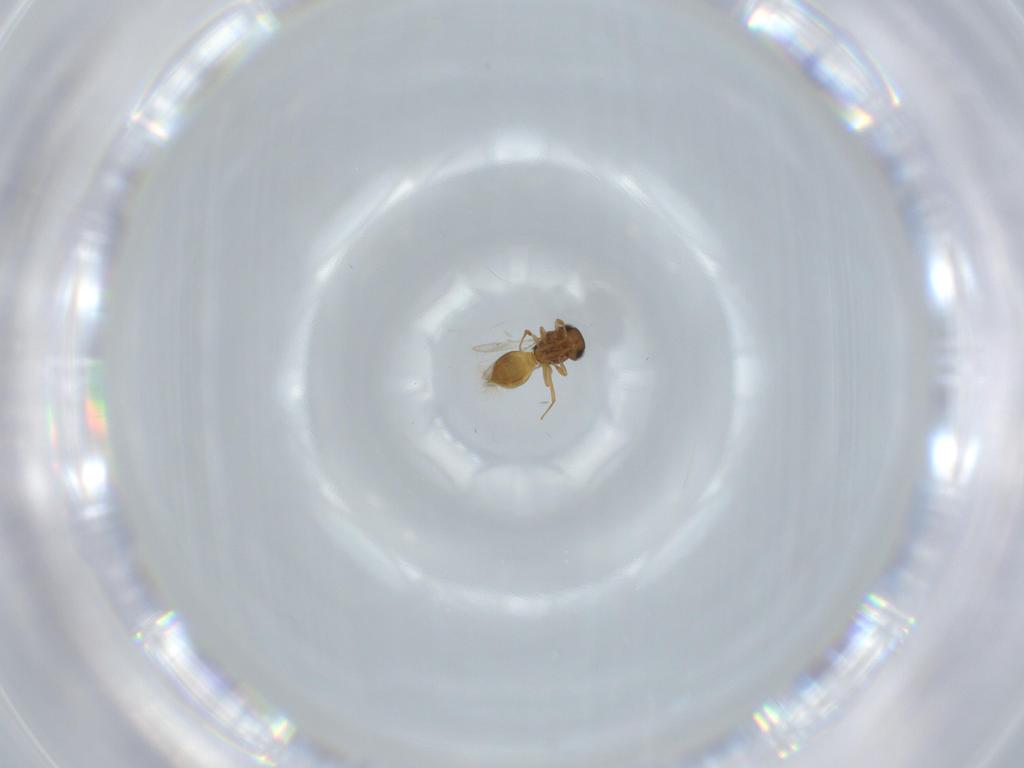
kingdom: Animalia
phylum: Arthropoda
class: Insecta
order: Hymenoptera
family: Scelionidae
